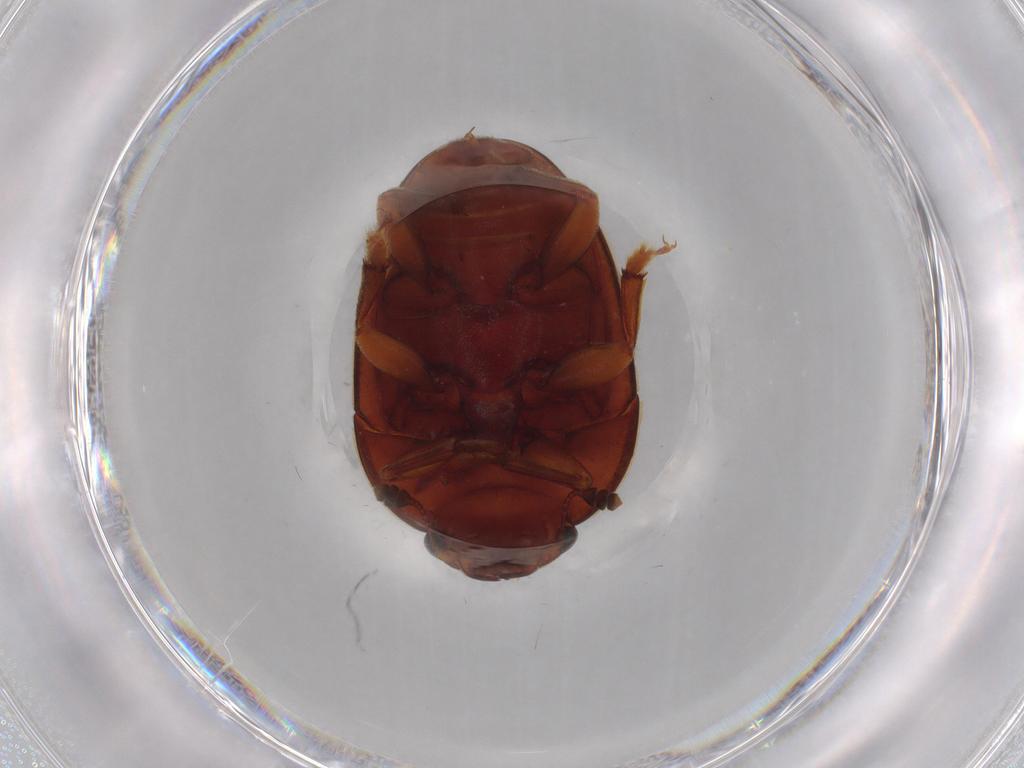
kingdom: Animalia
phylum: Arthropoda
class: Insecta
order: Coleoptera
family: Nitidulidae
